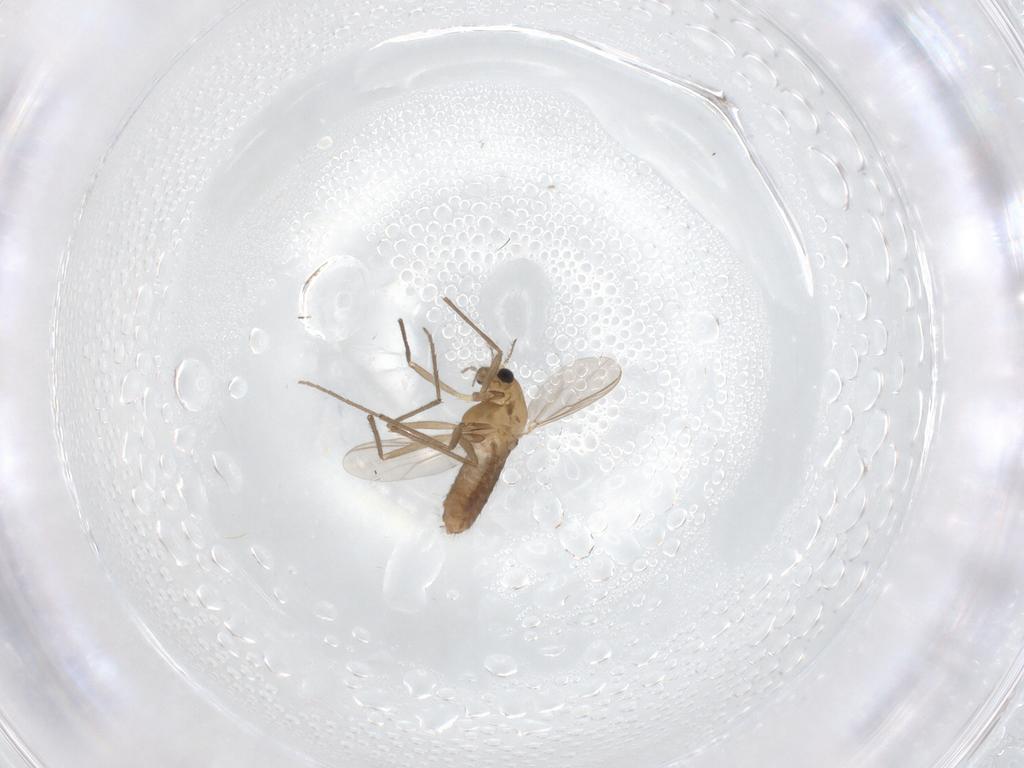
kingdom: Animalia
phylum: Arthropoda
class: Insecta
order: Diptera
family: Chironomidae
